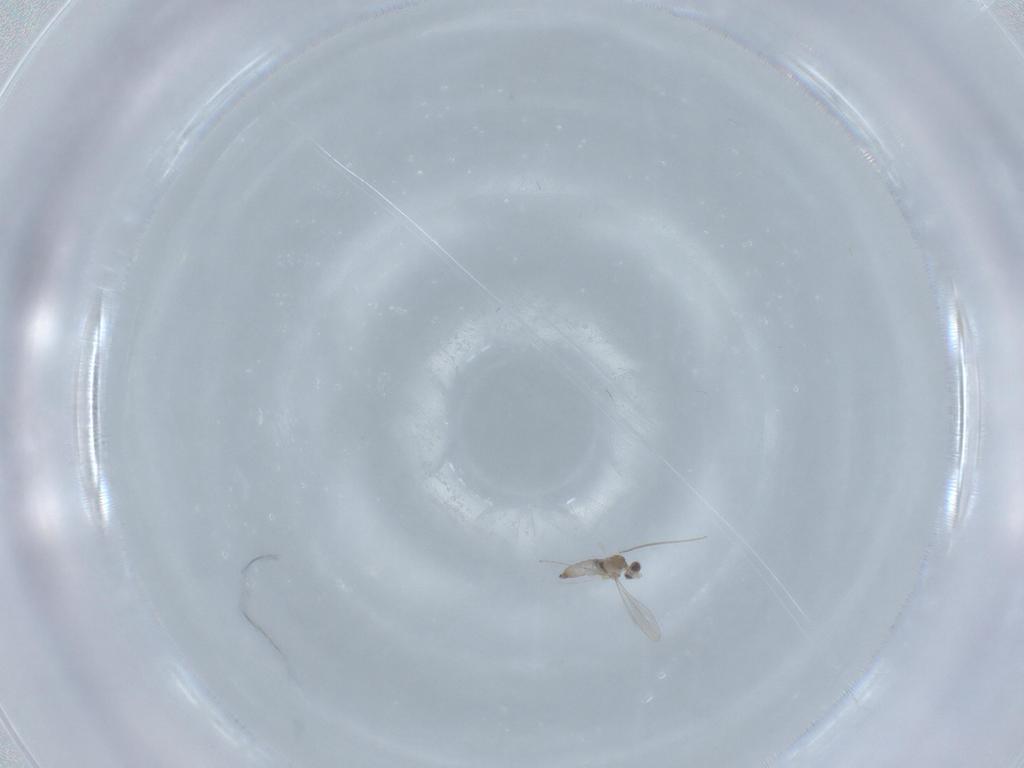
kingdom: Animalia
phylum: Arthropoda
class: Insecta
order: Diptera
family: Cecidomyiidae
